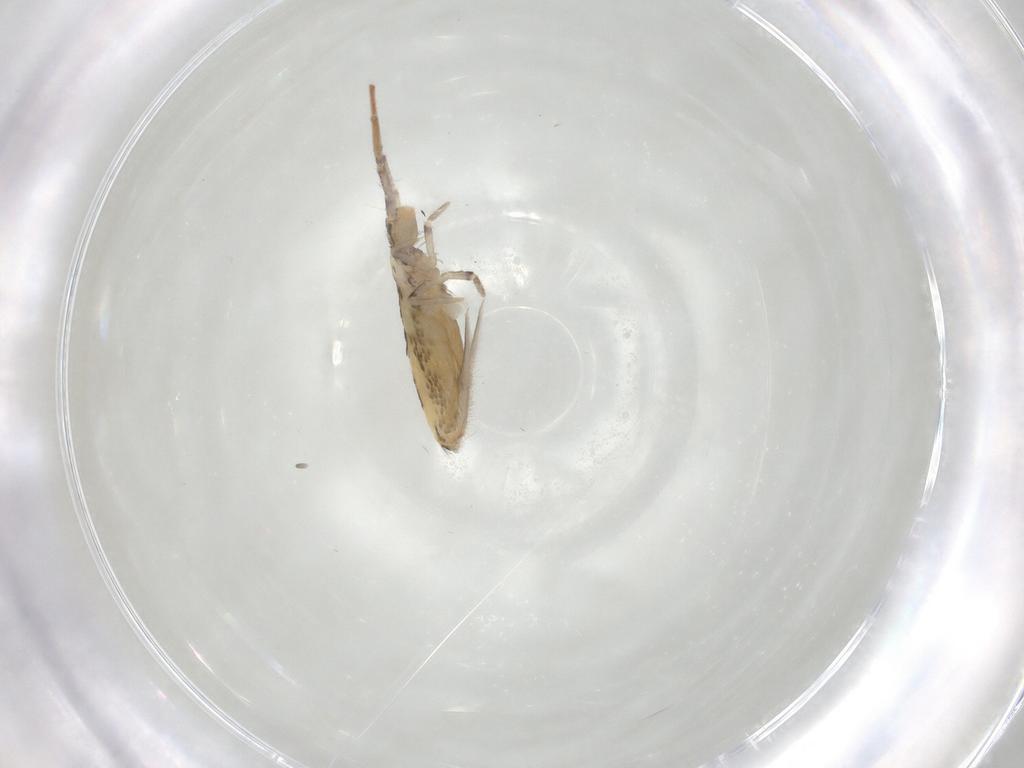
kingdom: Animalia
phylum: Arthropoda
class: Collembola
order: Entomobryomorpha
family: Entomobryidae
